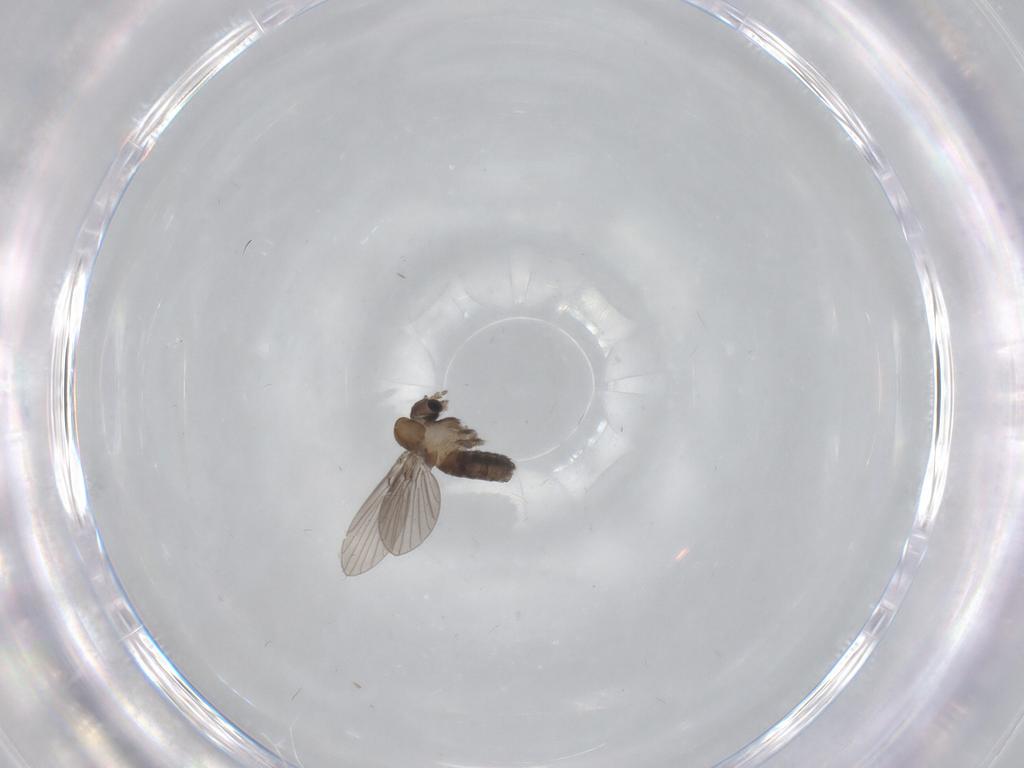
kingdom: Animalia
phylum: Arthropoda
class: Insecta
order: Diptera
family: Psychodidae
